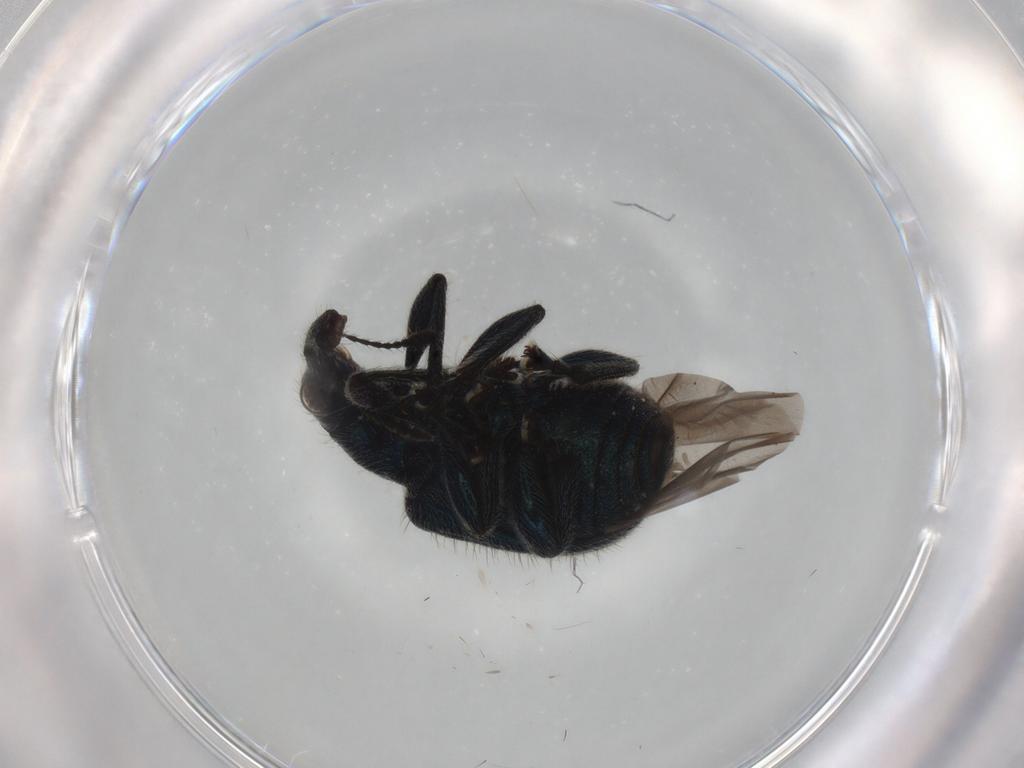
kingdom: Animalia
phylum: Arthropoda
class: Insecta
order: Coleoptera
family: Attelabidae
